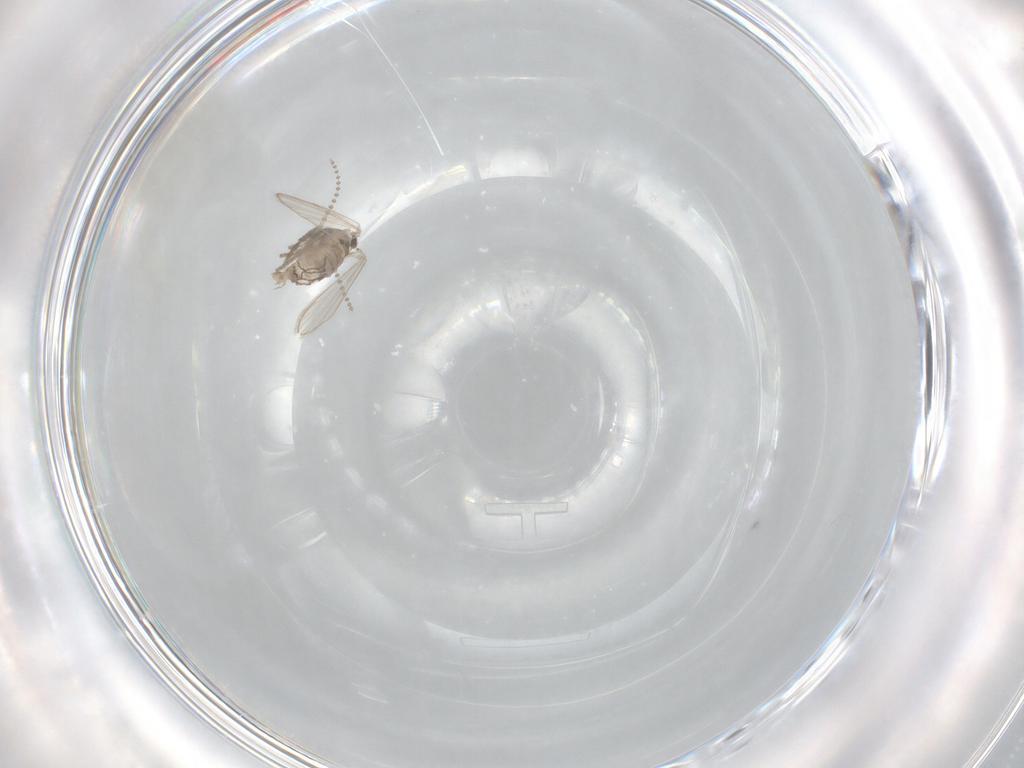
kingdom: Animalia
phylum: Arthropoda
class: Insecta
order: Diptera
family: Psychodidae
